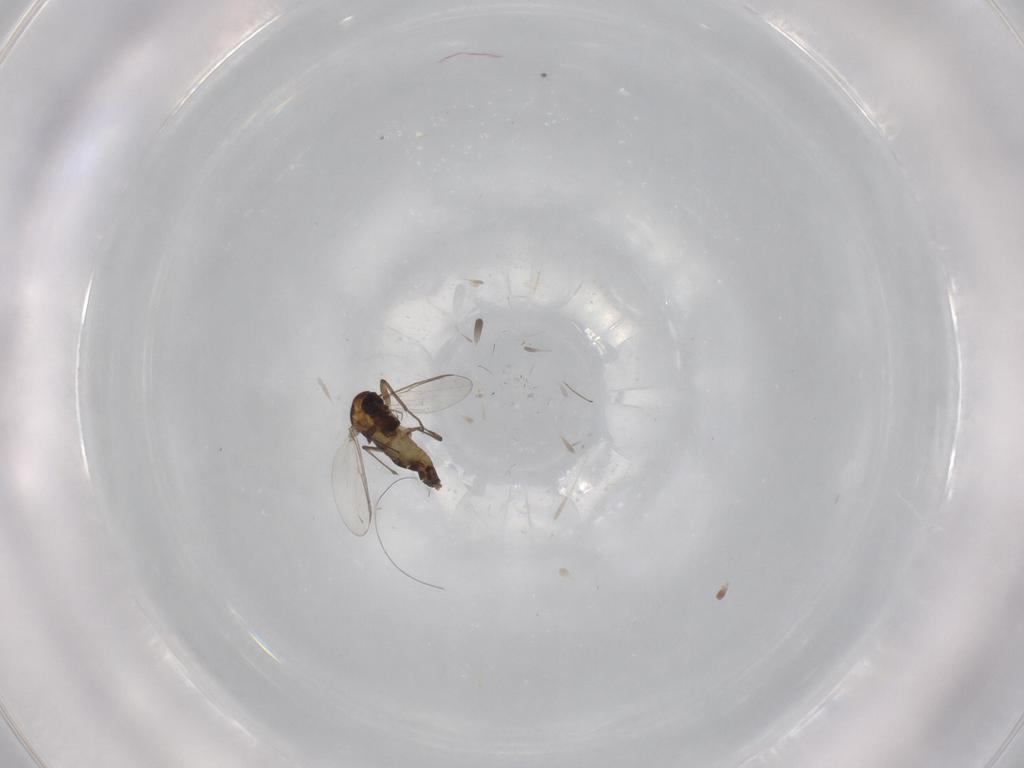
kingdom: Animalia
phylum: Arthropoda
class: Insecta
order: Diptera
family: Chironomidae
